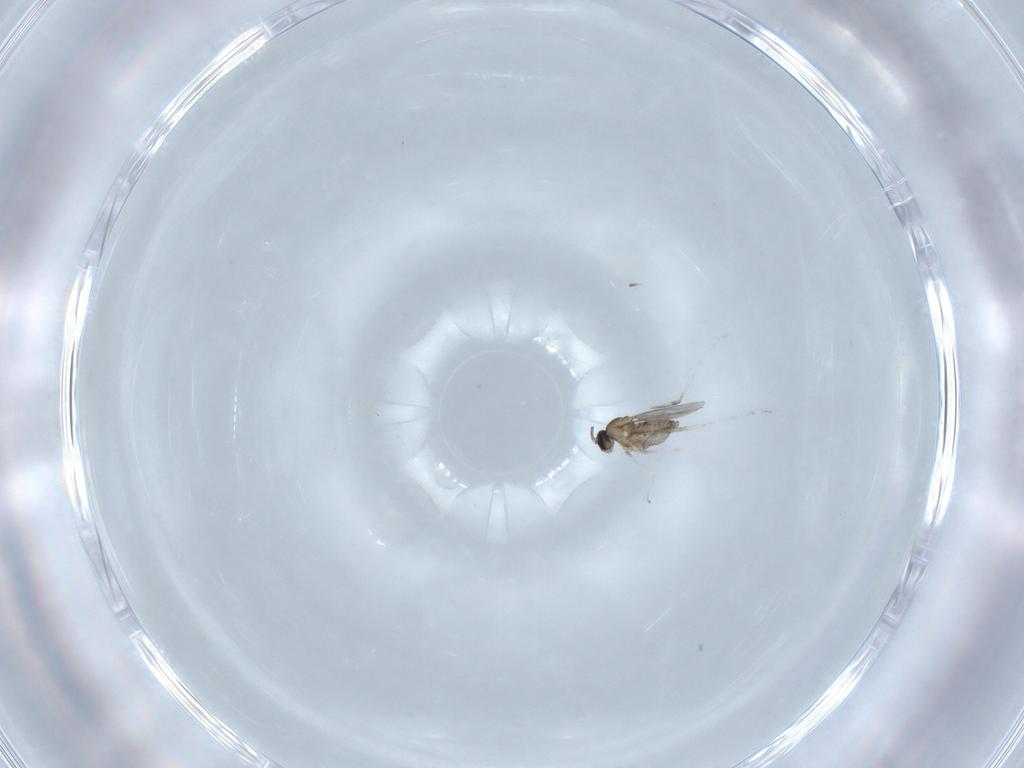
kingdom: Animalia
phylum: Arthropoda
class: Insecta
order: Diptera
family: Cecidomyiidae
